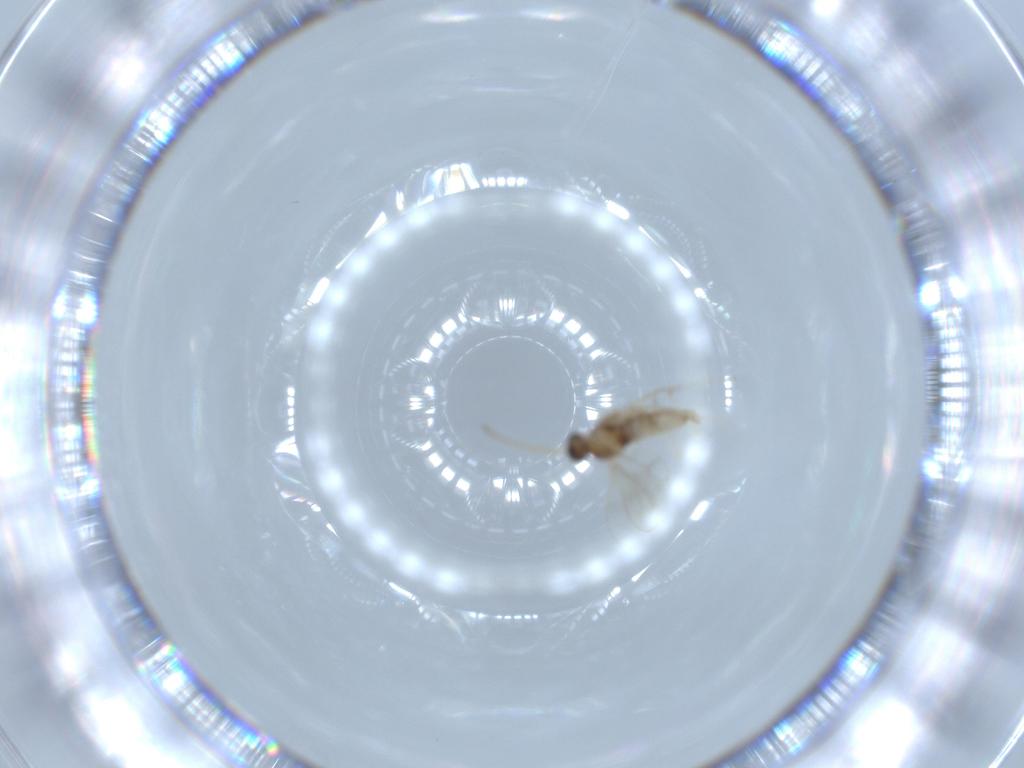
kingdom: Animalia
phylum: Arthropoda
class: Insecta
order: Diptera
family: Cecidomyiidae
